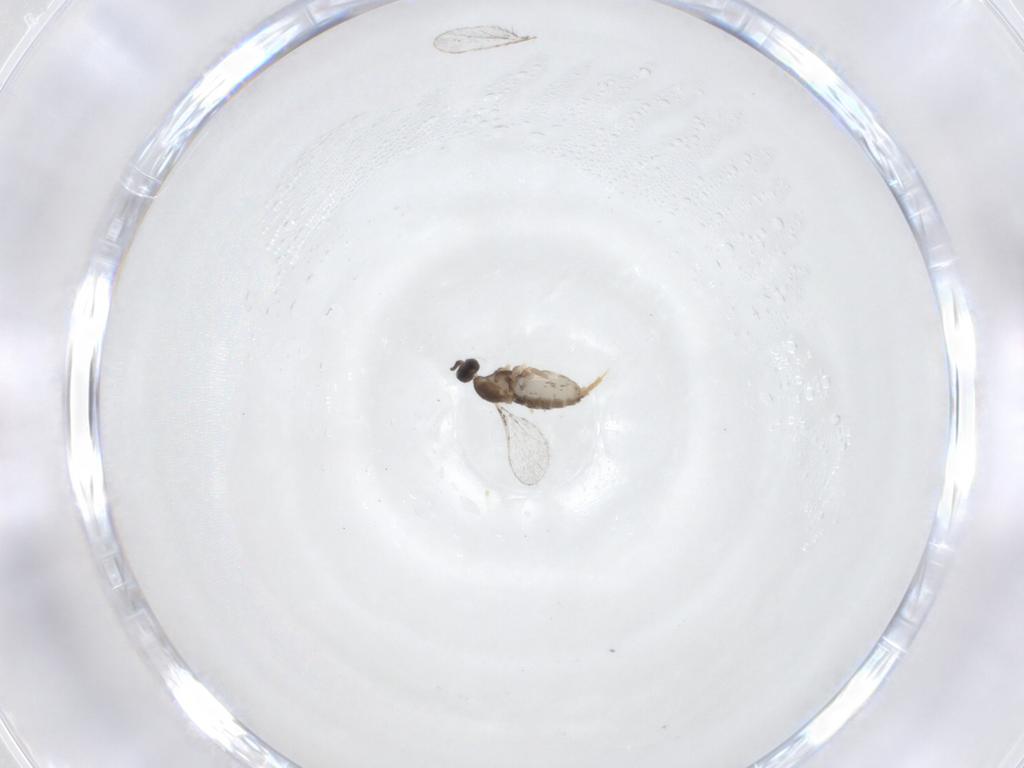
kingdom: Animalia
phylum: Arthropoda
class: Insecta
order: Diptera
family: Cecidomyiidae
